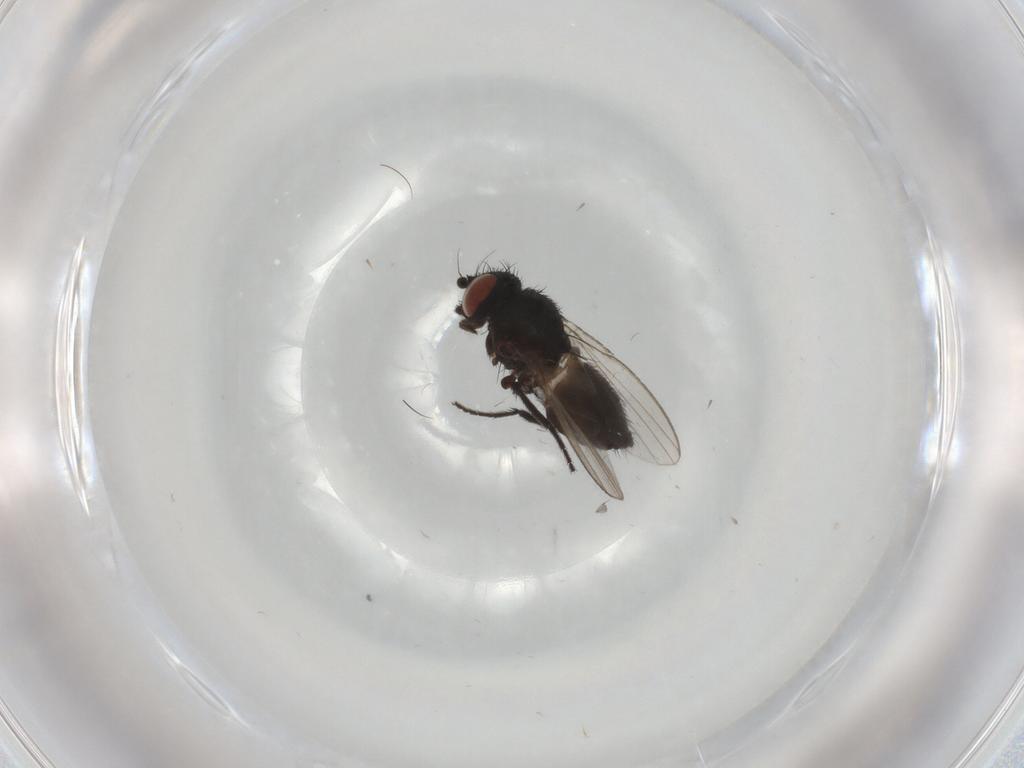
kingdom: Animalia
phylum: Arthropoda
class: Insecta
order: Diptera
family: Milichiidae
